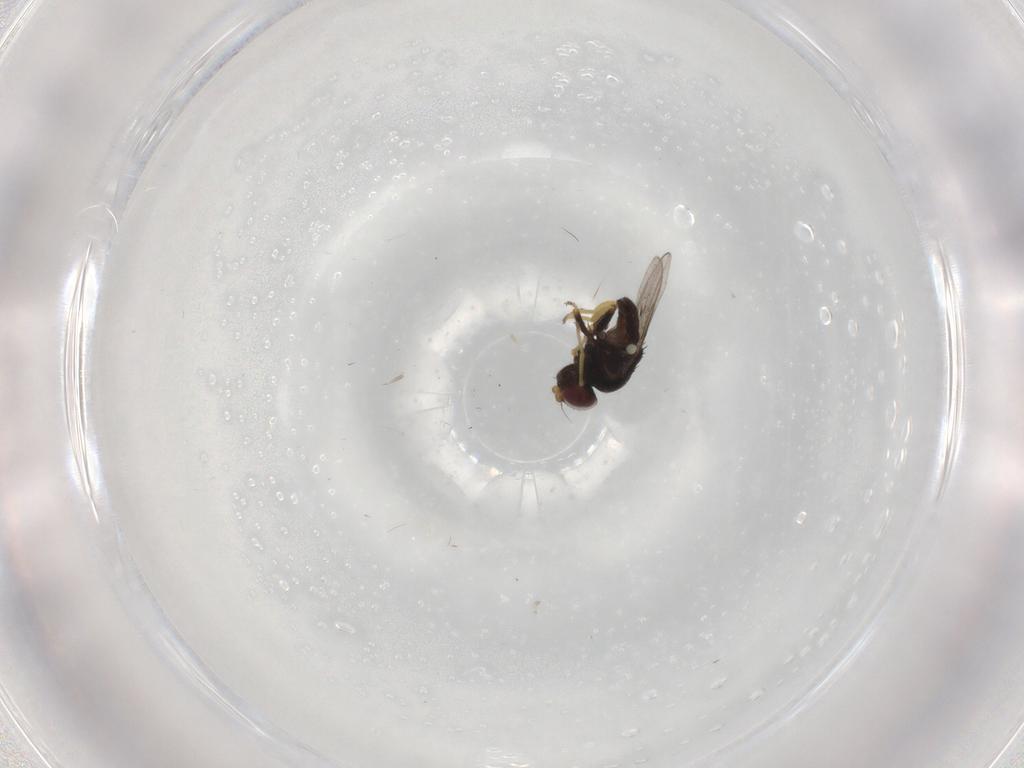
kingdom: Animalia
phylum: Arthropoda
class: Insecta
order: Diptera
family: Chloropidae
